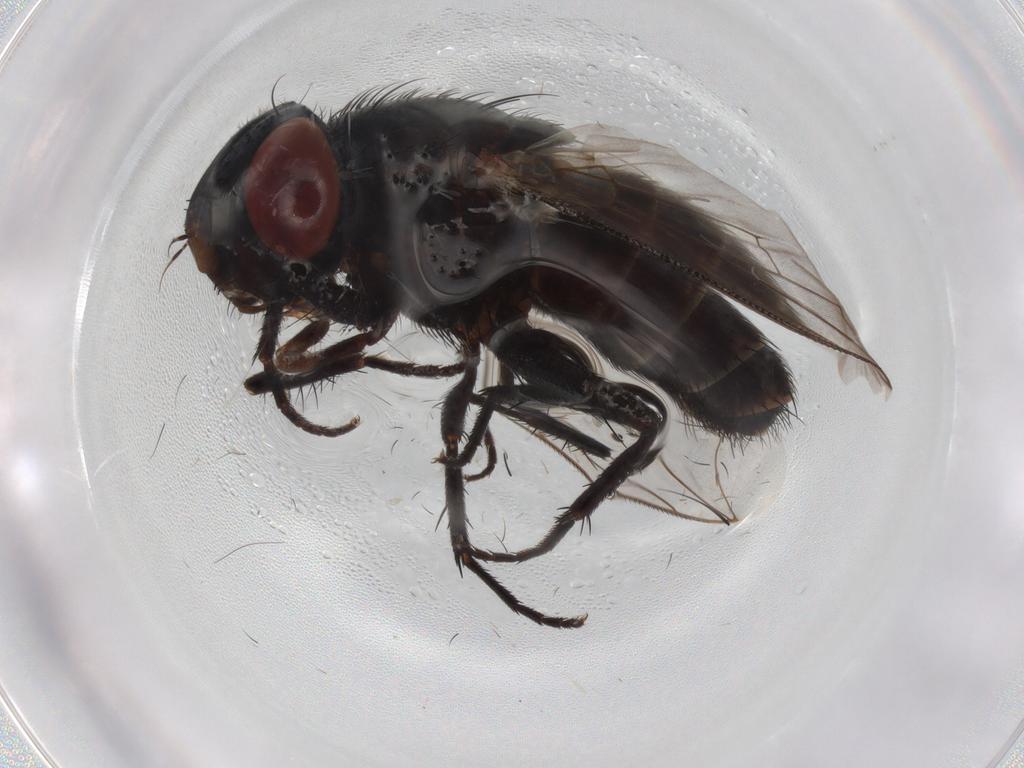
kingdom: Animalia
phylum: Arthropoda
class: Insecta
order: Diptera
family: Sarcophagidae
